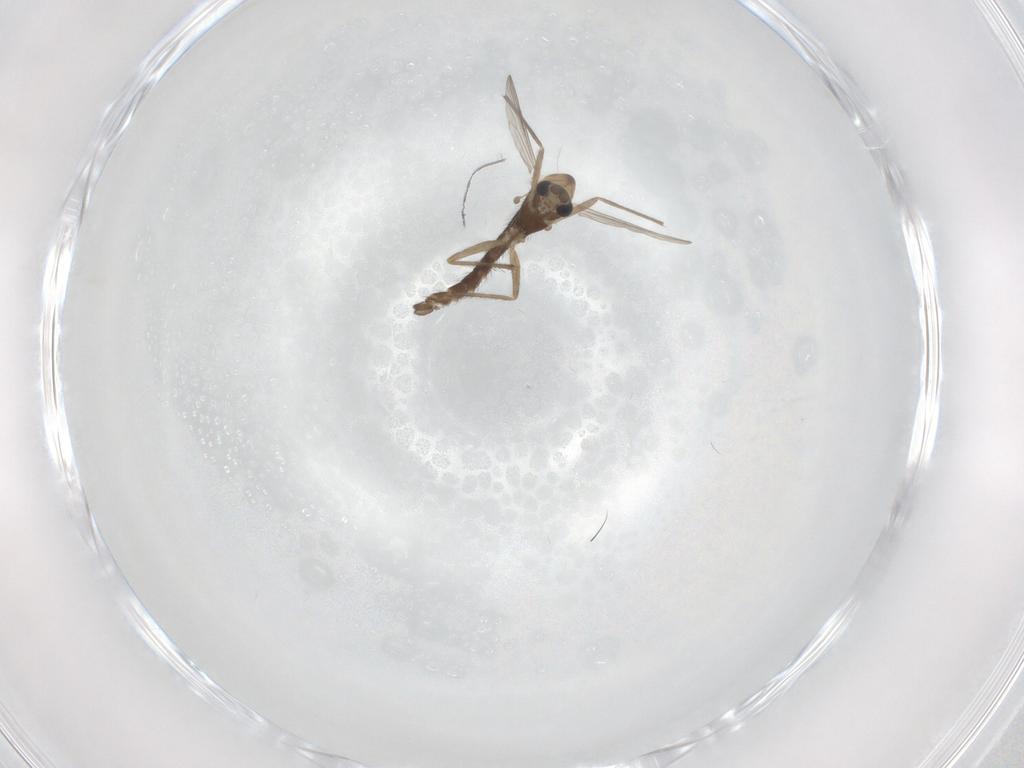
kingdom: Animalia
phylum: Arthropoda
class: Insecta
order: Diptera
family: Chironomidae
